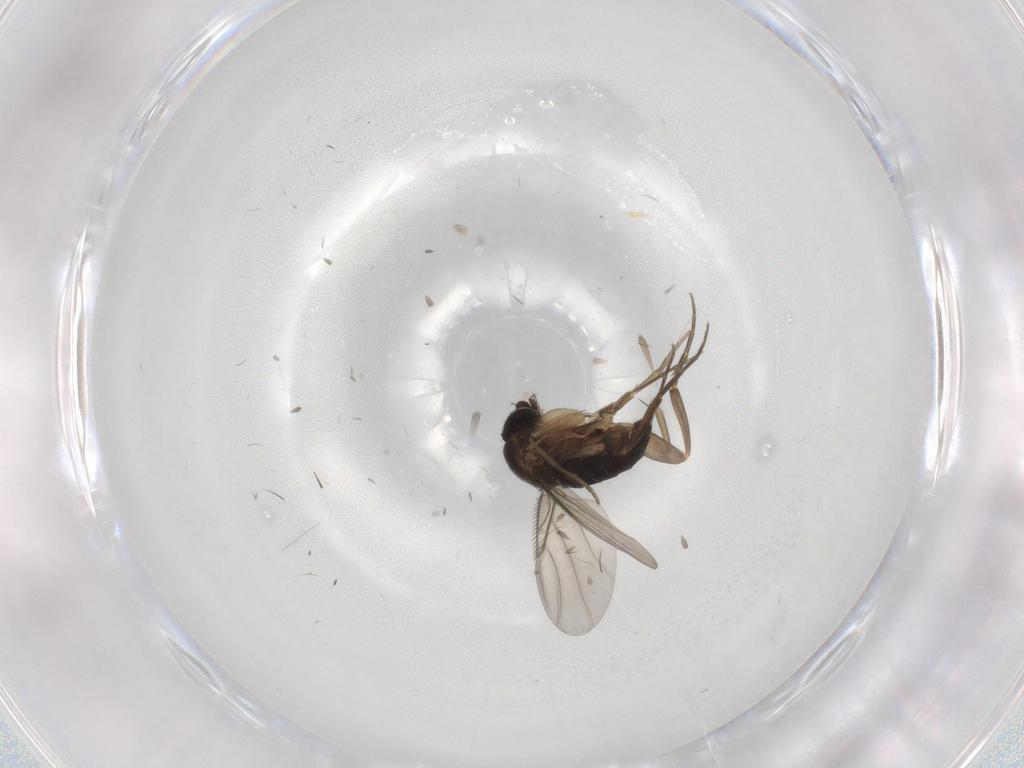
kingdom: Animalia
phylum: Arthropoda
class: Insecta
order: Diptera
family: Phoridae
